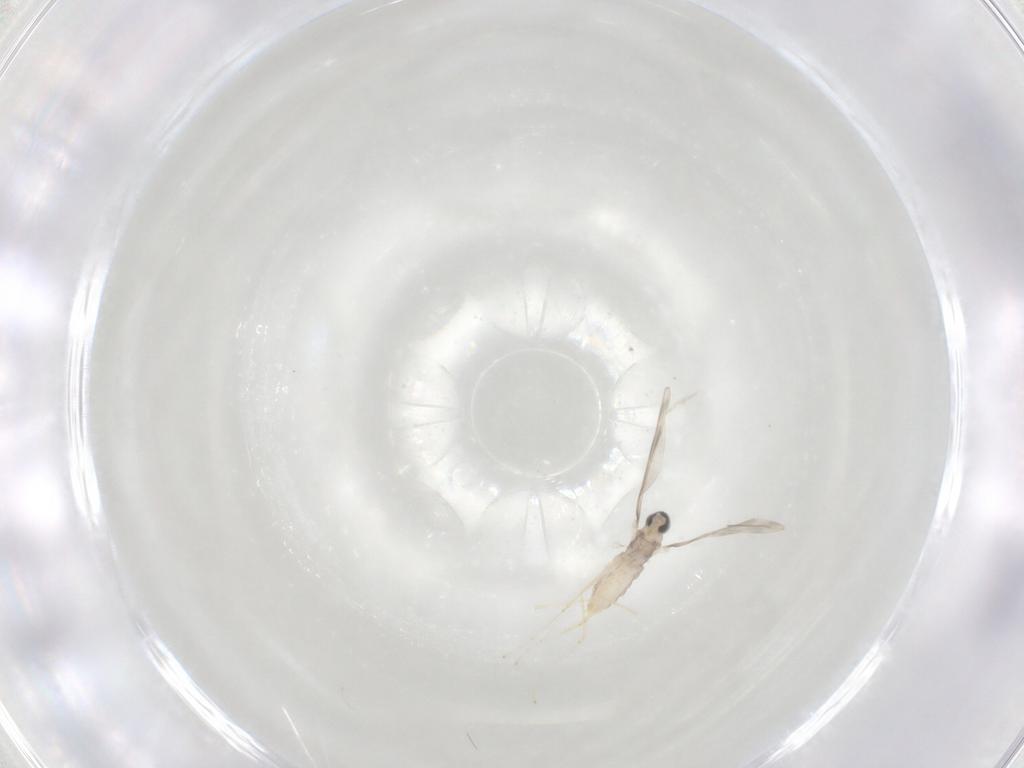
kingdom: Animalia
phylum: Arthropoda
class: Insecta
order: Diptera
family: Cecidomyiidae
